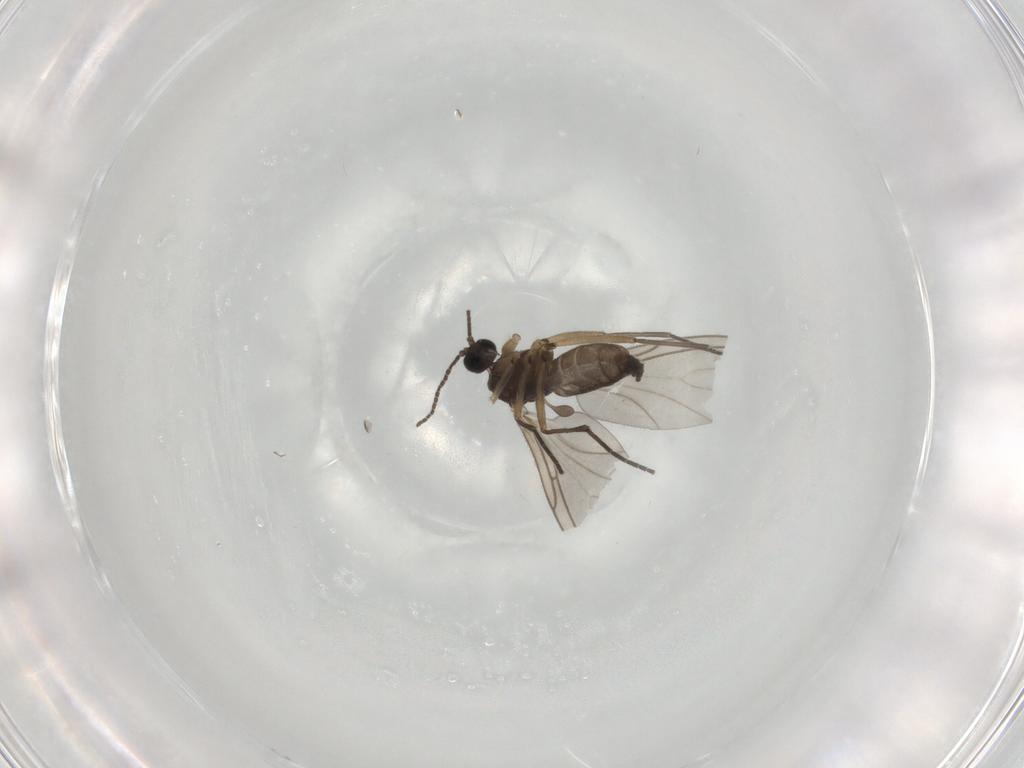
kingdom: Animalia
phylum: Arthropoda
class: Insecta
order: Diptera
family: Sciaridae
